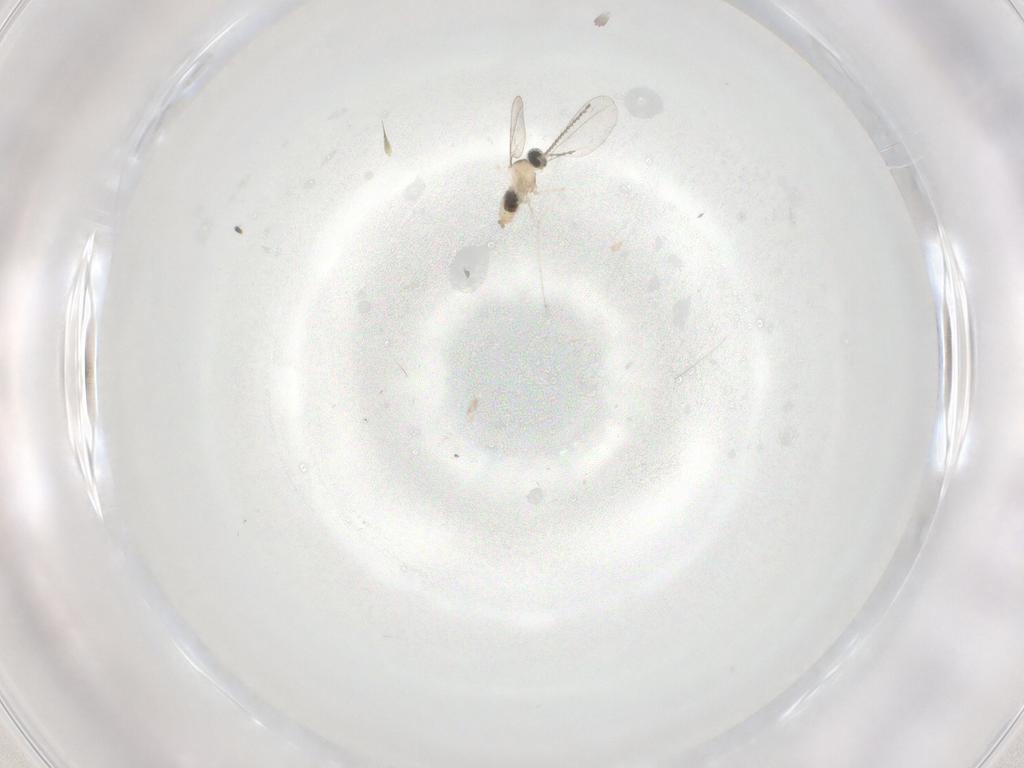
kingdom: Animalia
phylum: Arthropoda
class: Insecta
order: Diptera
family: Cecidomyiidae
